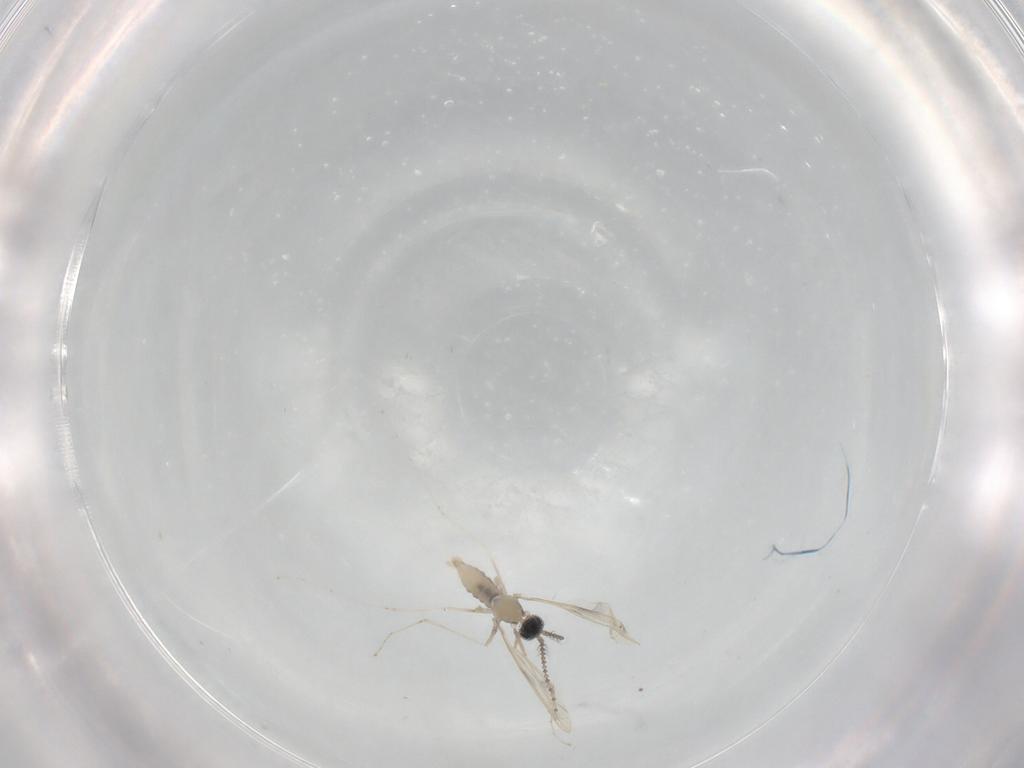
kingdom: Animalia
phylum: Arthropoda
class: Insecta
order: Diptera
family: Cecidomyiidae
